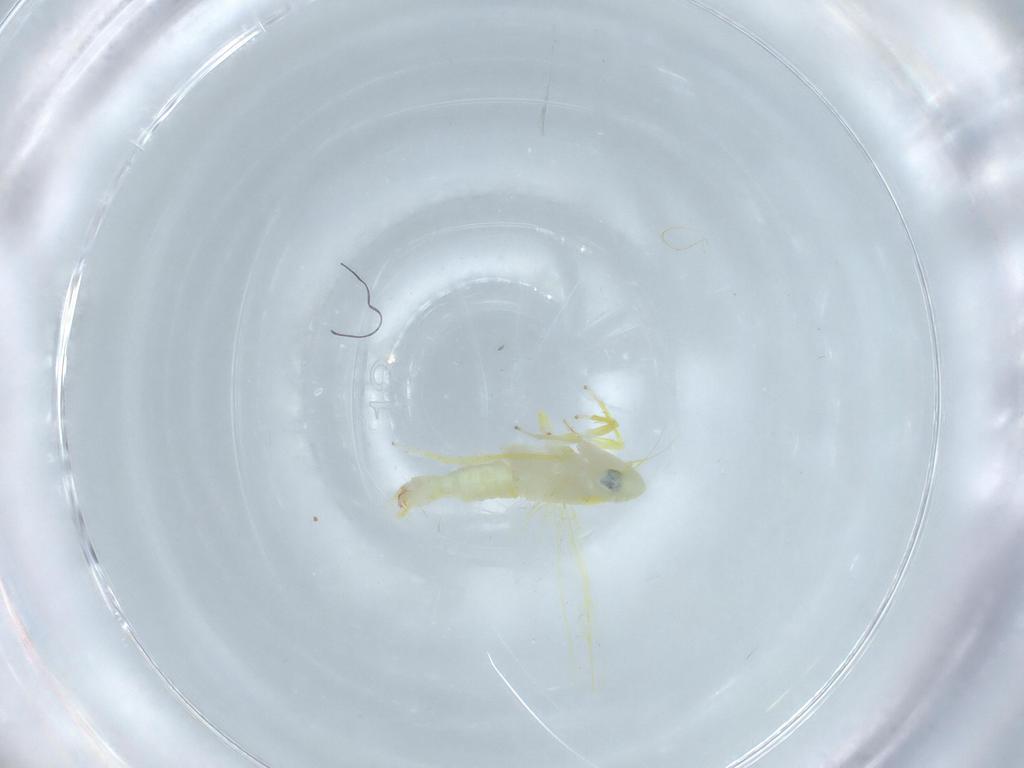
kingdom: Animalia
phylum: Arthropoda
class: Insecta
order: Hemiptera
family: Cicadellidae
